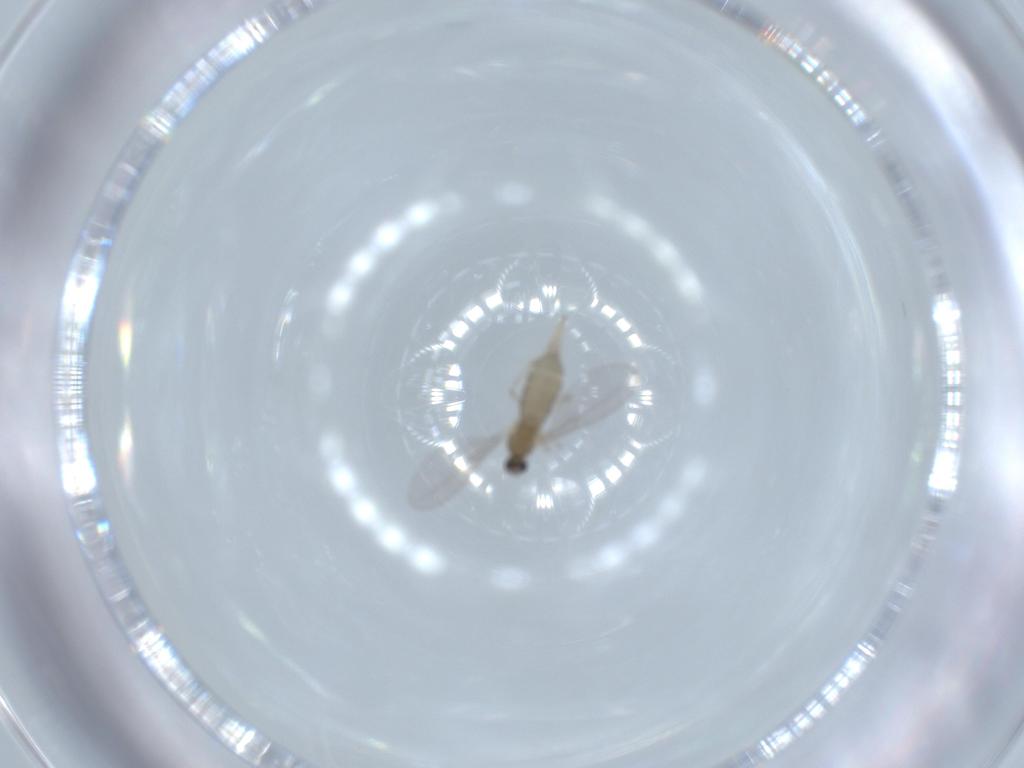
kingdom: Animalia
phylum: Arthropoda
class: Insecta
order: Diptera
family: Cecidomyiidae
